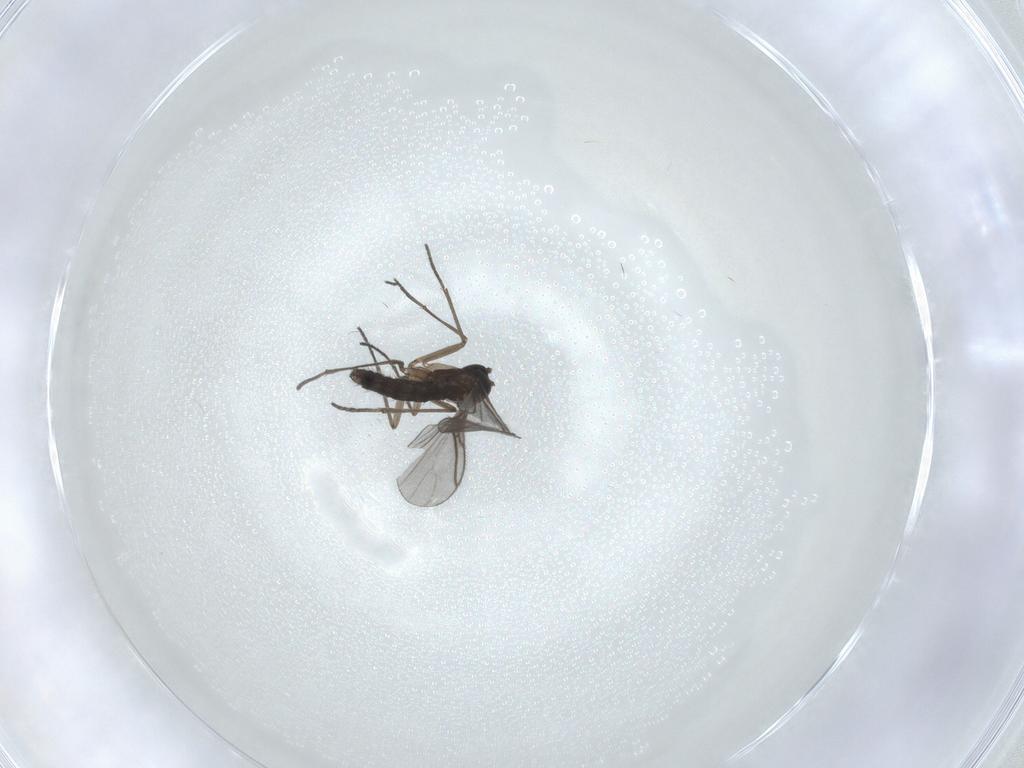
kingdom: Animalia
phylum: Arthropoda
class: Insecta
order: Diptera
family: Sciaridae
